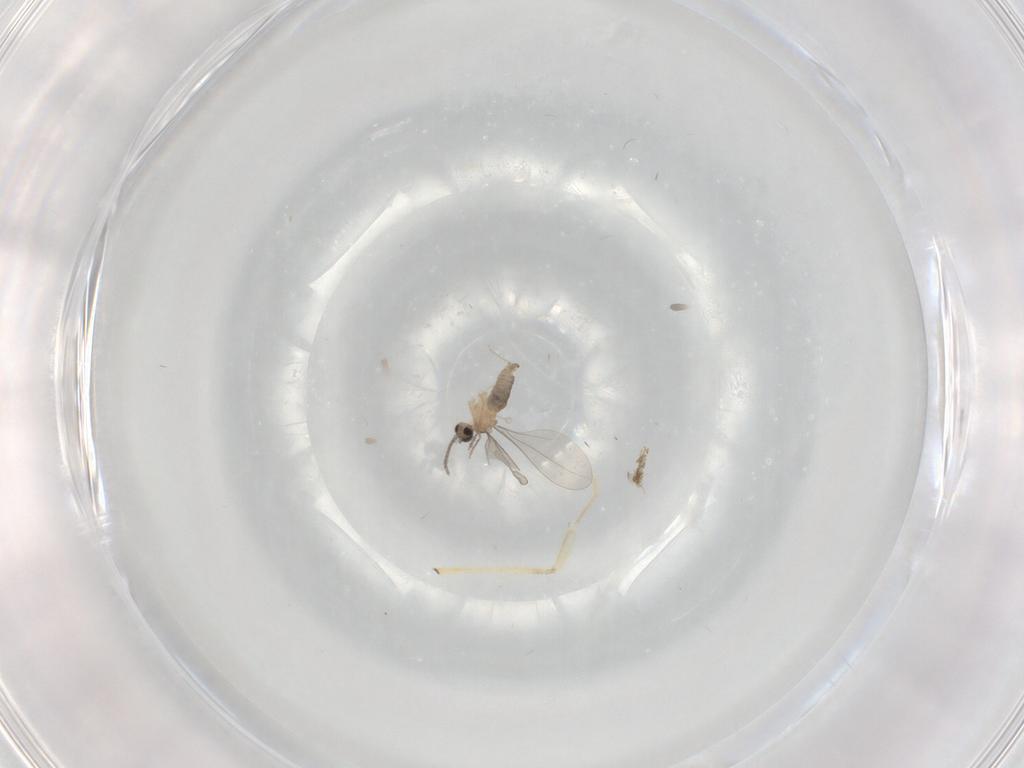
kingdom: Animalia
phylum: Arthropoda
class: Insecta
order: Diptera
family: Cecidomyiidae
